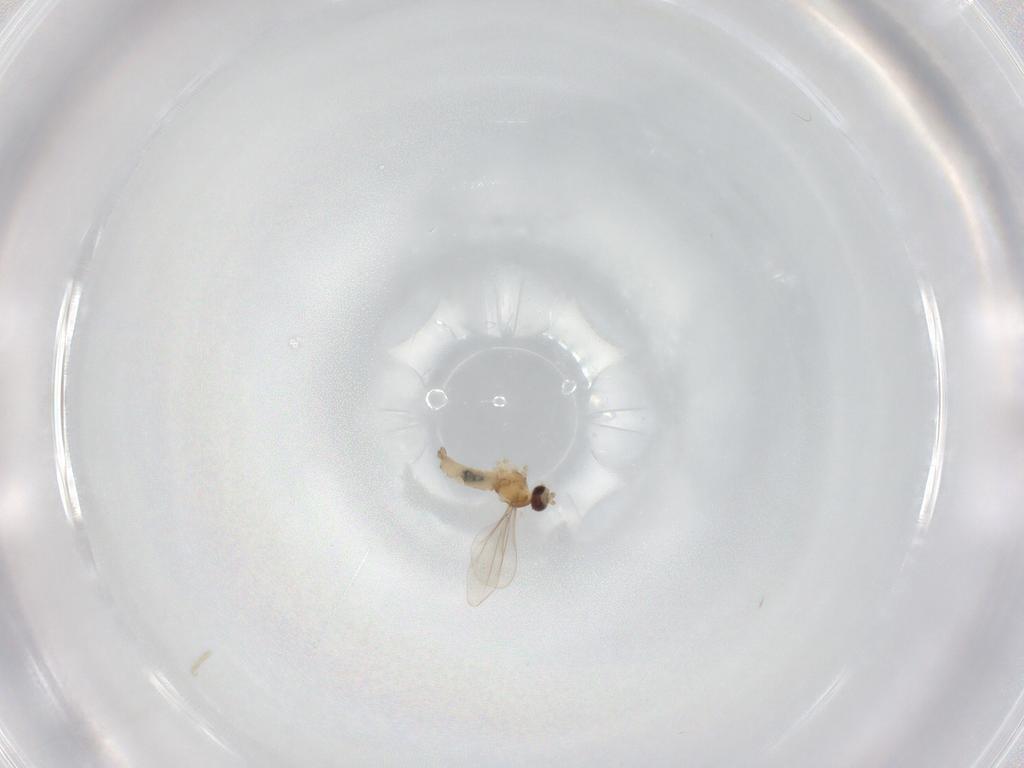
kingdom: Animalia
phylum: Arthropoda
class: Insecta
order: Diptera
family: Cecidomyiidae
